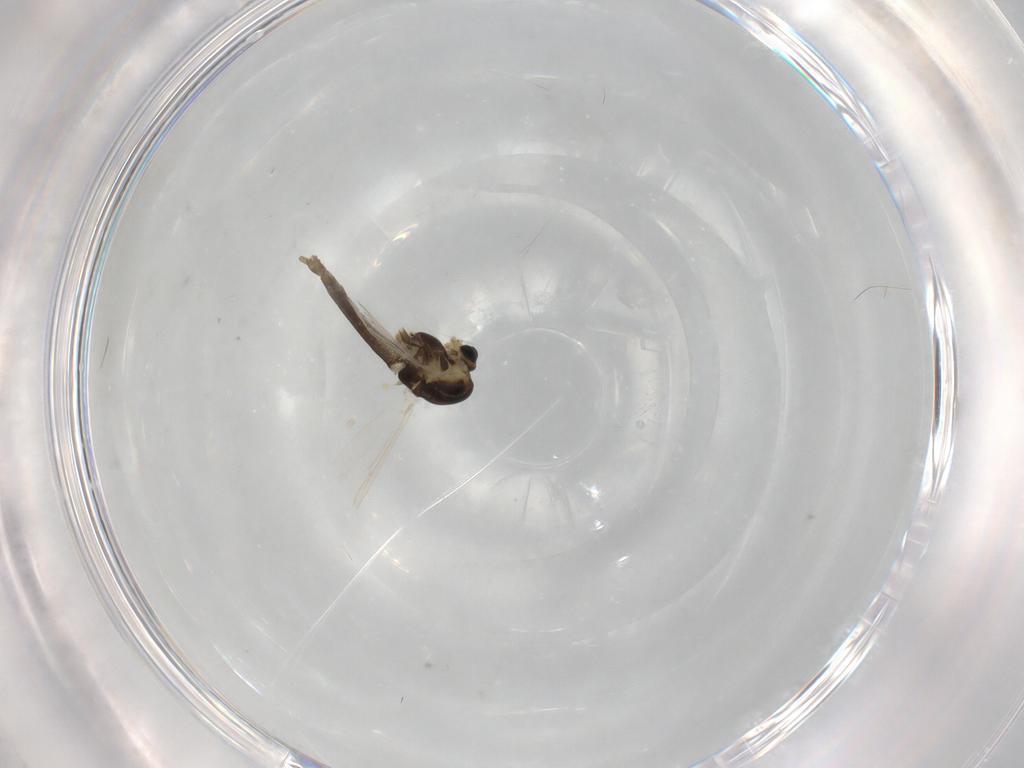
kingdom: Animalia
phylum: Arthropoda
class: Insecta
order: Diptera
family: Chironomidae
